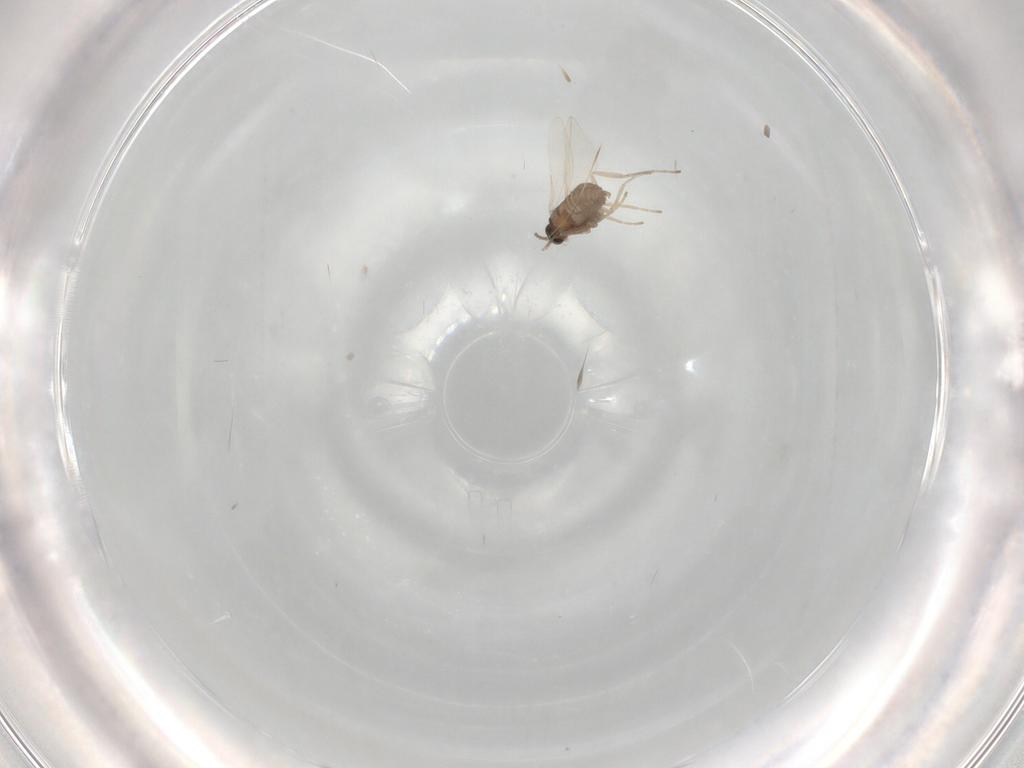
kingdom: Animalia
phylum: Arthropoda
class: Insecta
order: Diptera
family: Cecidomyiidae
